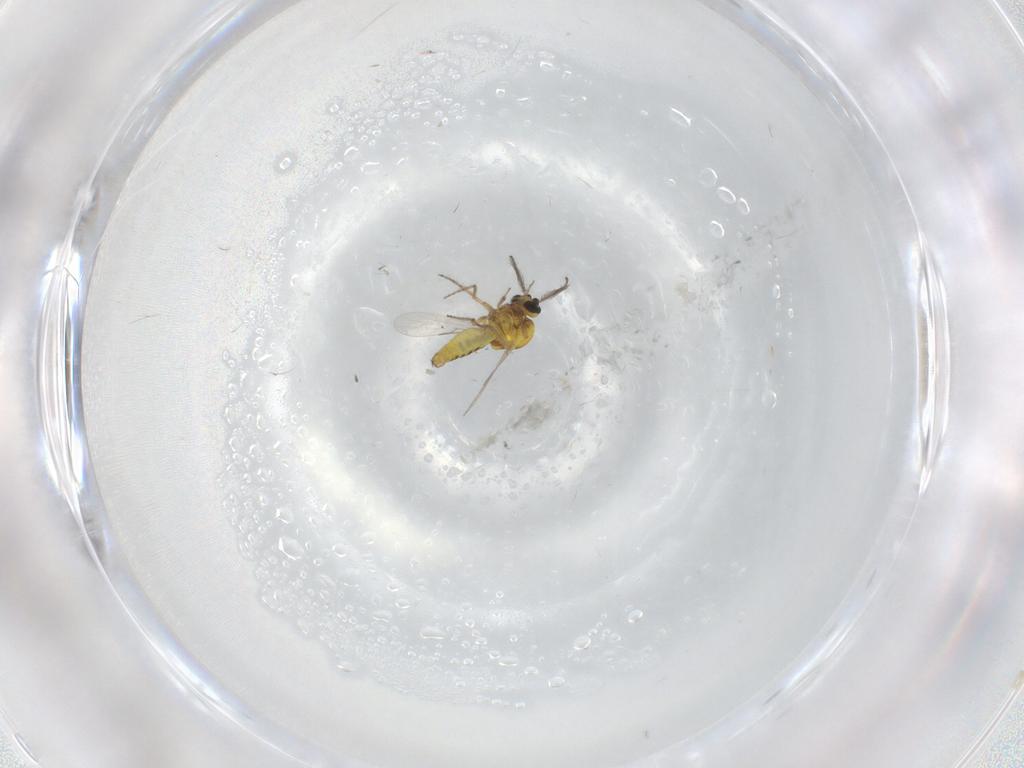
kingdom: Animalia
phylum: Arthropoda
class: Insecta
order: Diptera
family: Ceratopogonidae
